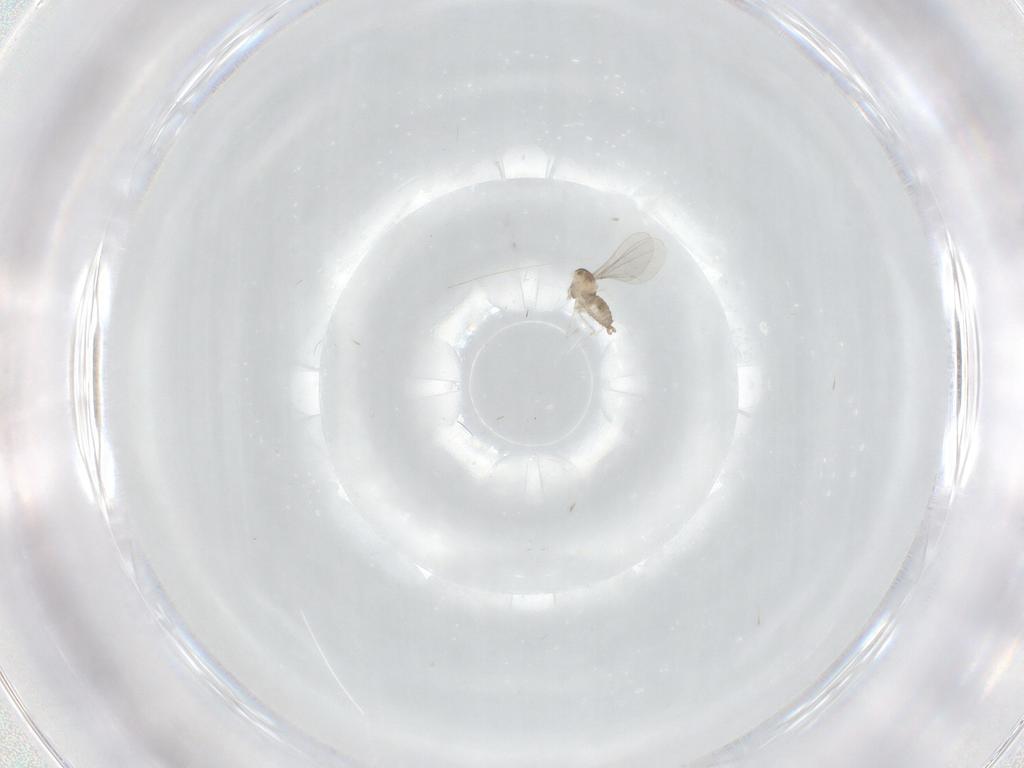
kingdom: Animalia
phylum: Arthropoda
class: Insecta
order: Diptera
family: Cecidomyiidae
